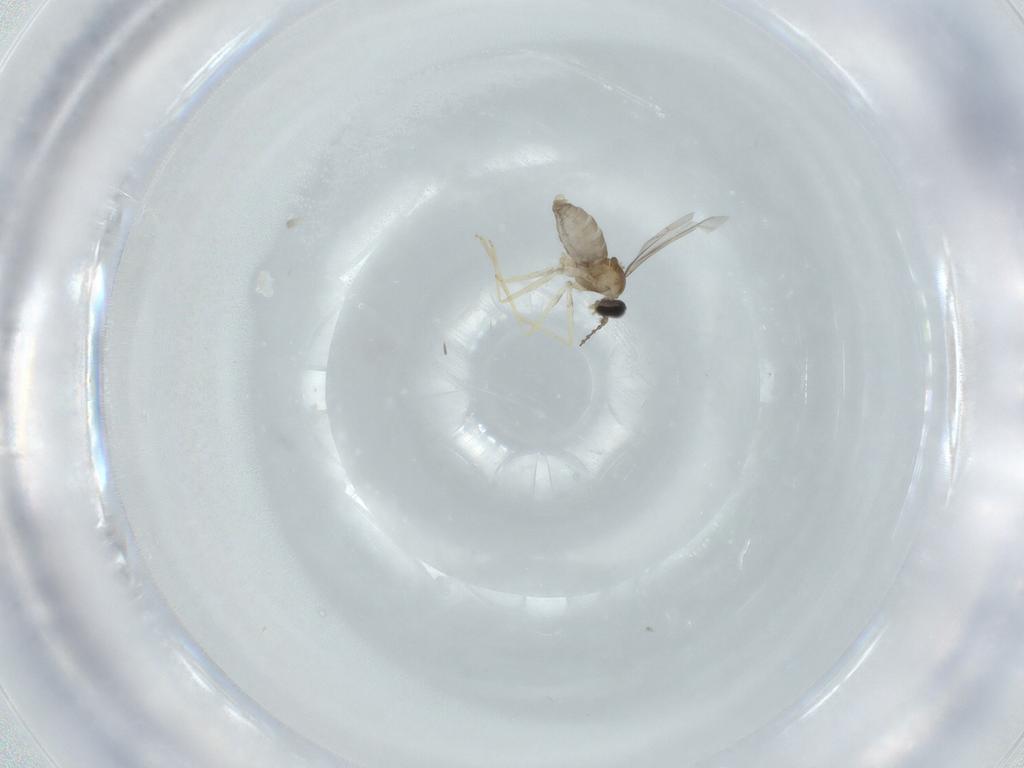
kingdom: Animalia
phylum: Arthropoda
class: Insecta
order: Diptera
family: Cecidomyiidae
